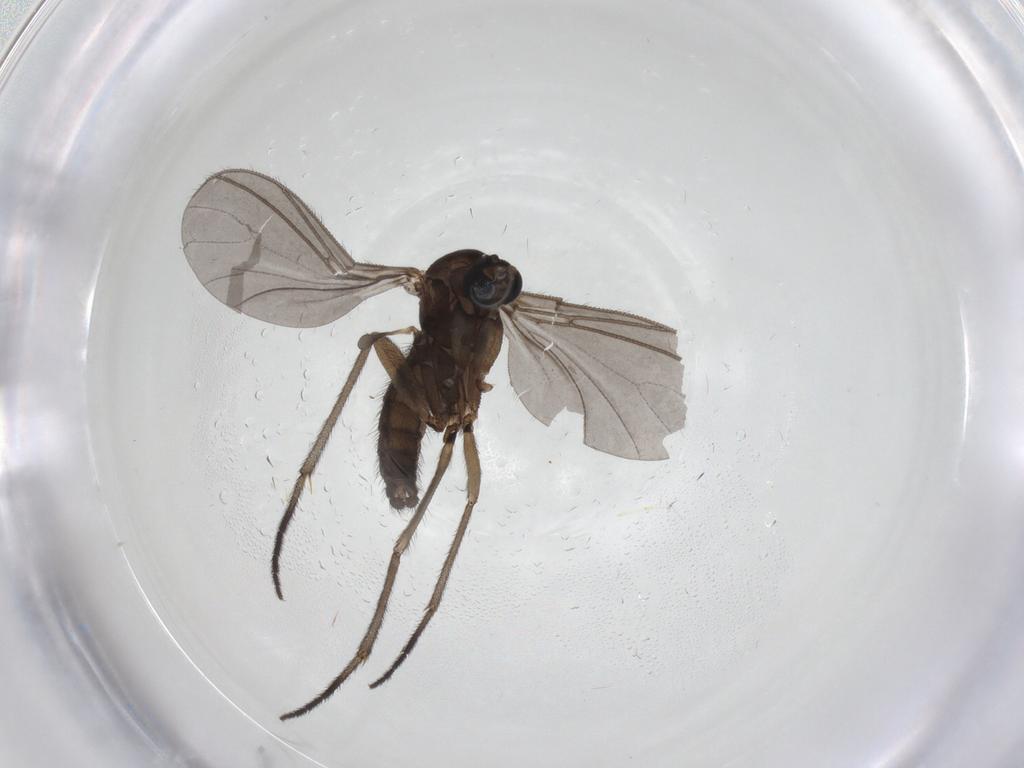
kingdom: Animalia
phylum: Arthropoda
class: Insecta
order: Diptera
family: Sciaridae
